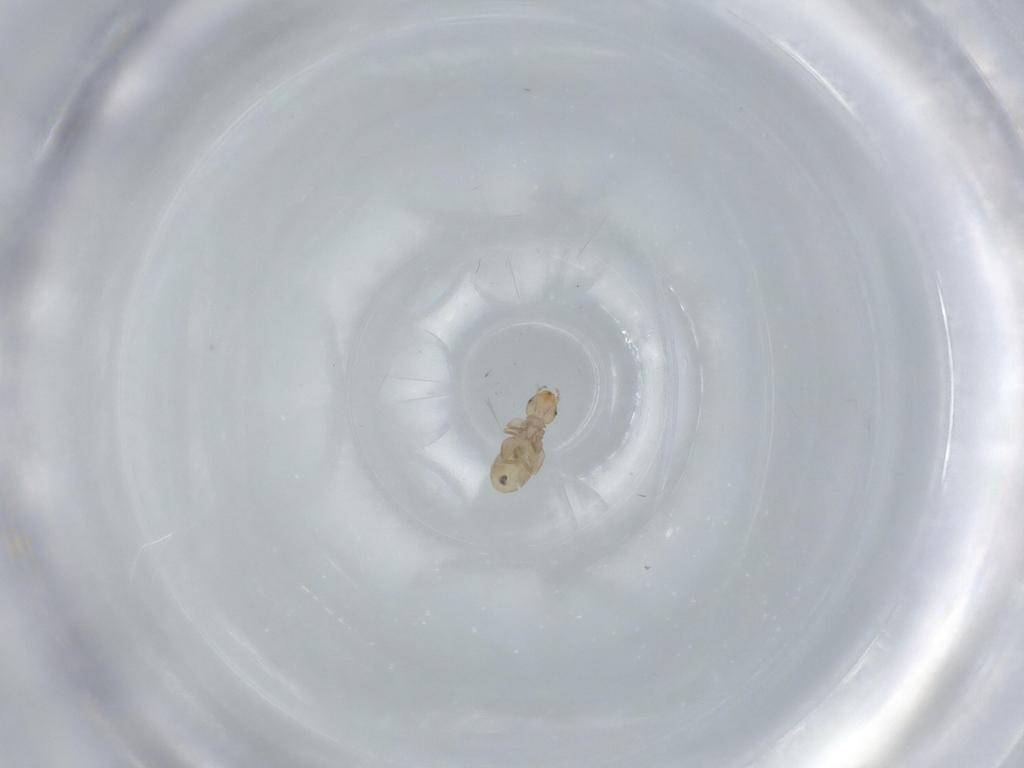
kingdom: Animalia
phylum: Arthropoda
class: Insecta
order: Psocodea
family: Liposcelididae
